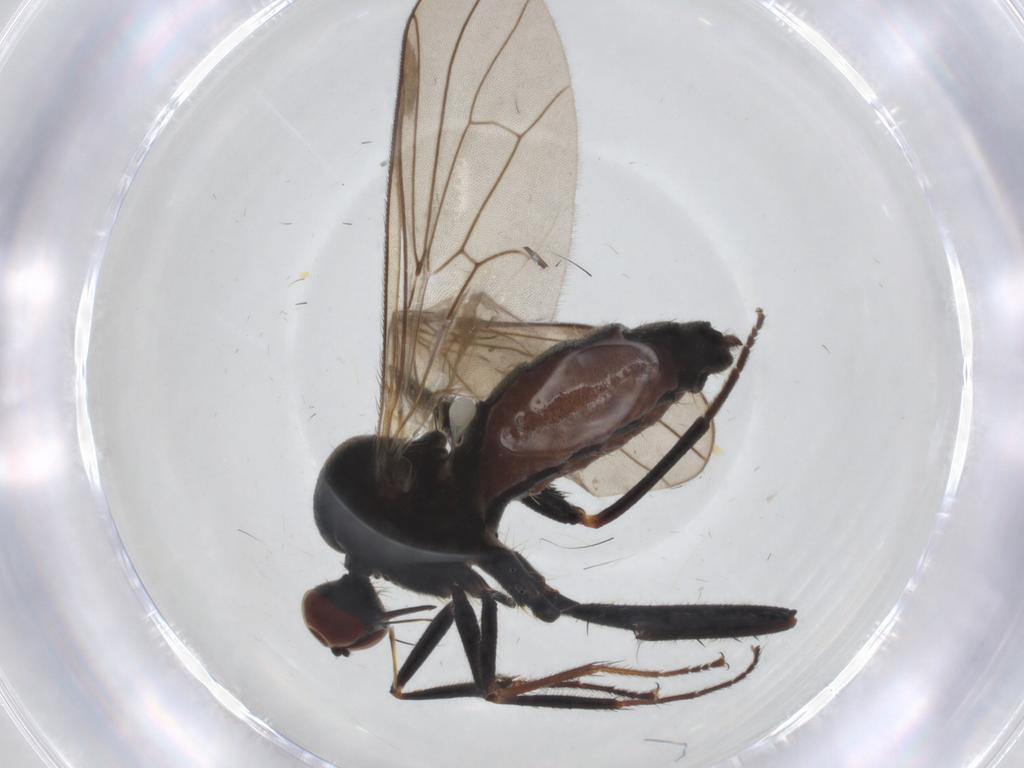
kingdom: Animalia
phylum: Arthropoda
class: Insecta
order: Diptera
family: Hybotidae
